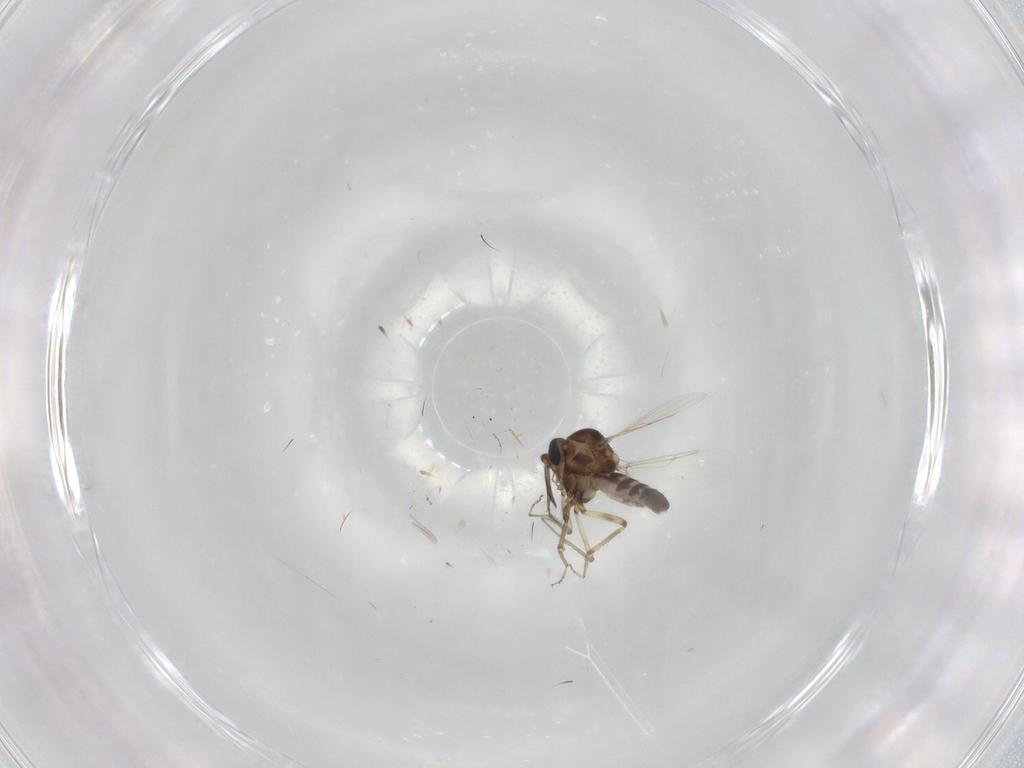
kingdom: Animalia
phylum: Arthropoda
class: Insecta
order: Diptera
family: Ceratopogonidae
